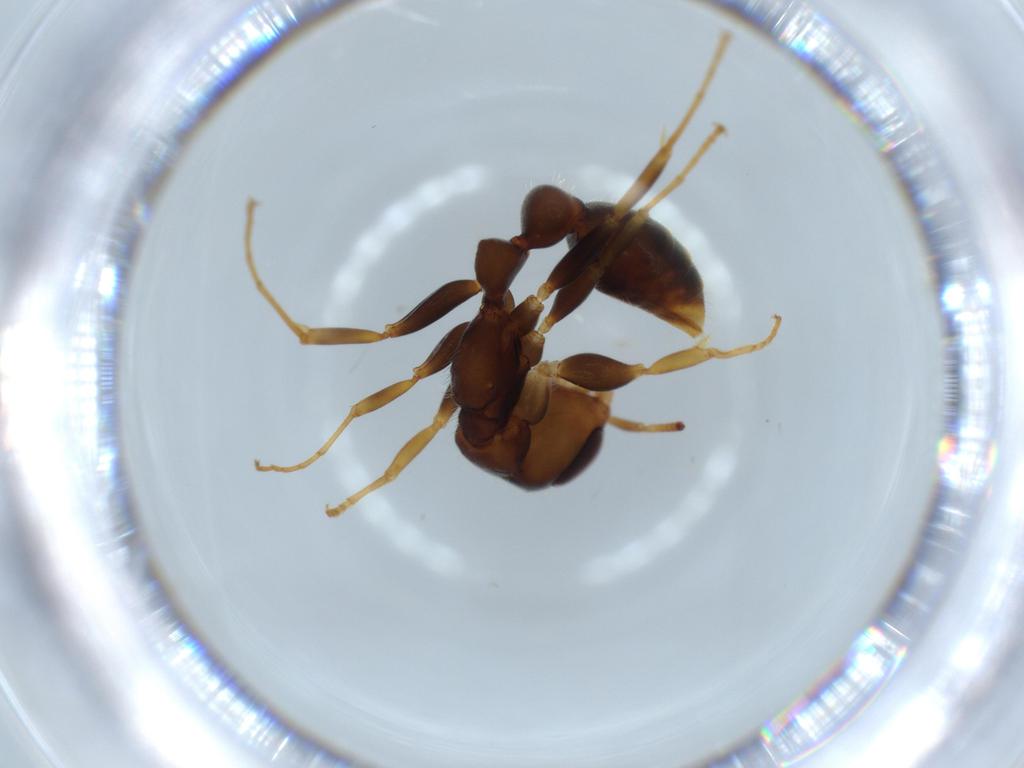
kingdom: Animalia
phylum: Arthropoda
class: Insecta
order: Hymenoptera
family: Formicidae
